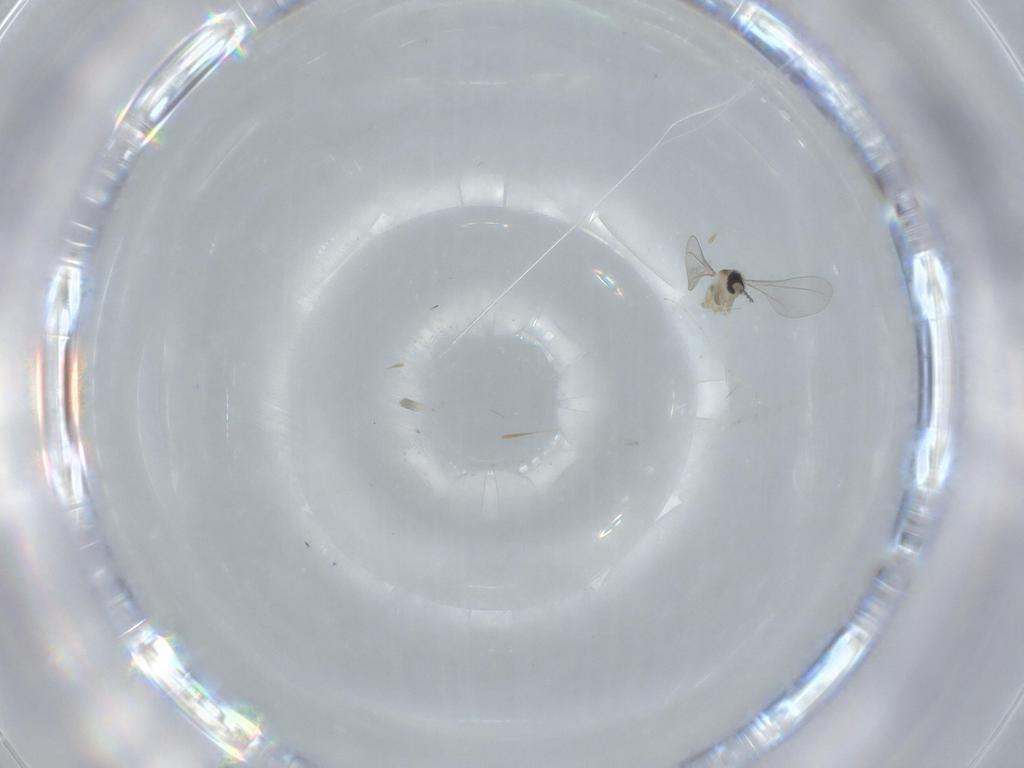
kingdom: Animalia
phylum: Arthropoda
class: Insecta
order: Diptera
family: Cecidomyiidae
